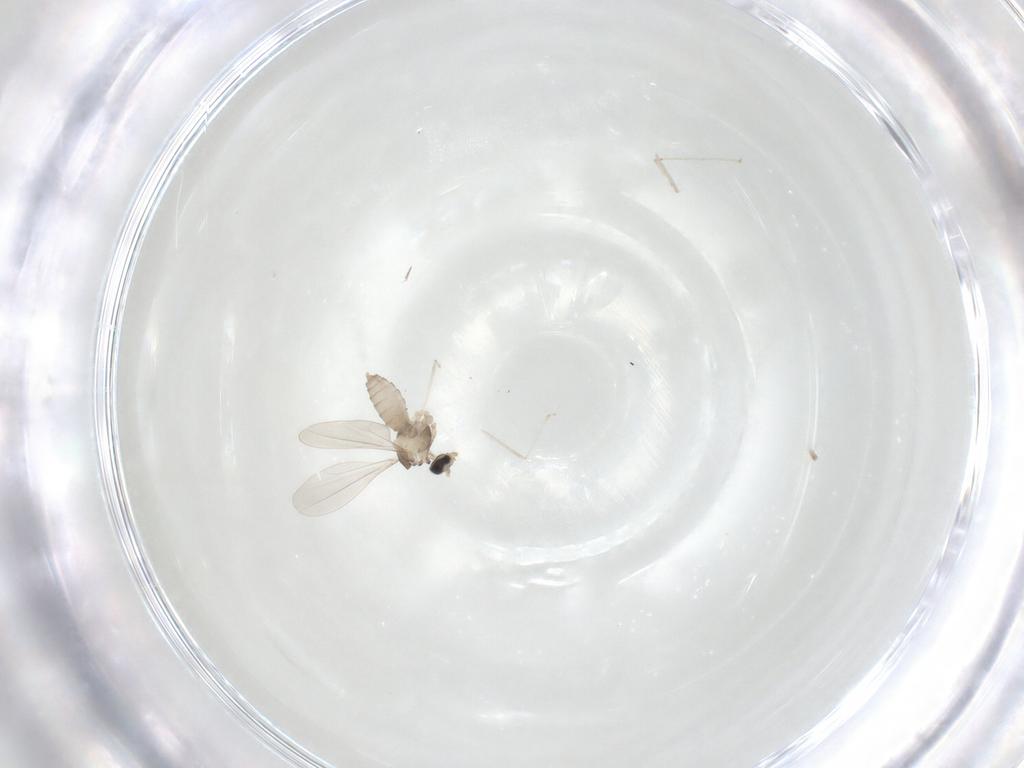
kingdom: Animalia
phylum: Arthropoda
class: Insecta
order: Diptera
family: Cecidomyiidae
